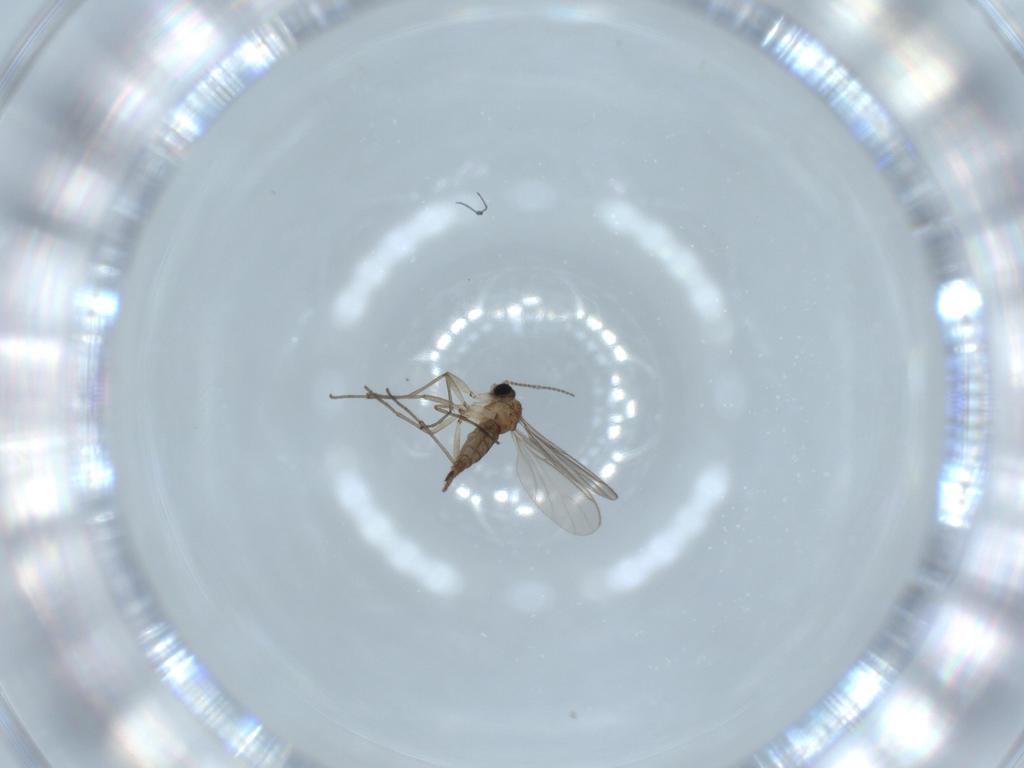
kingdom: Animalia
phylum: Arthropoda
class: Insecta
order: Diptera
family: Sciaridae
